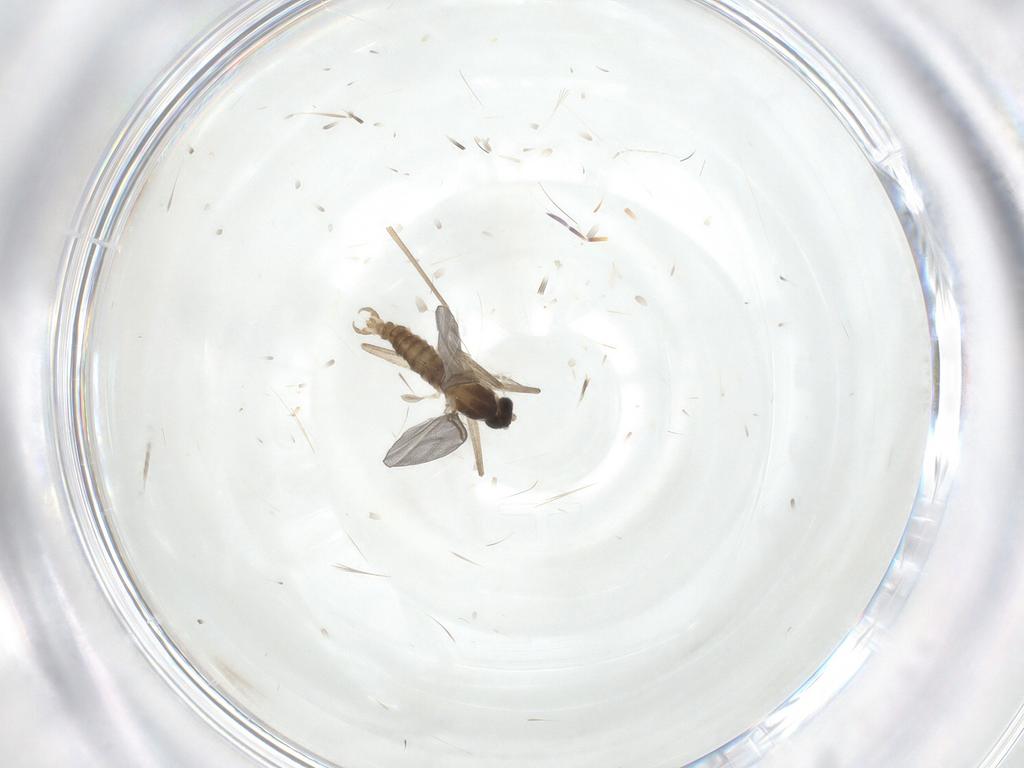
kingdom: Animalia
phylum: Arthropoda
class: Insecta
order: Diptera
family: Cecidomyiidae
